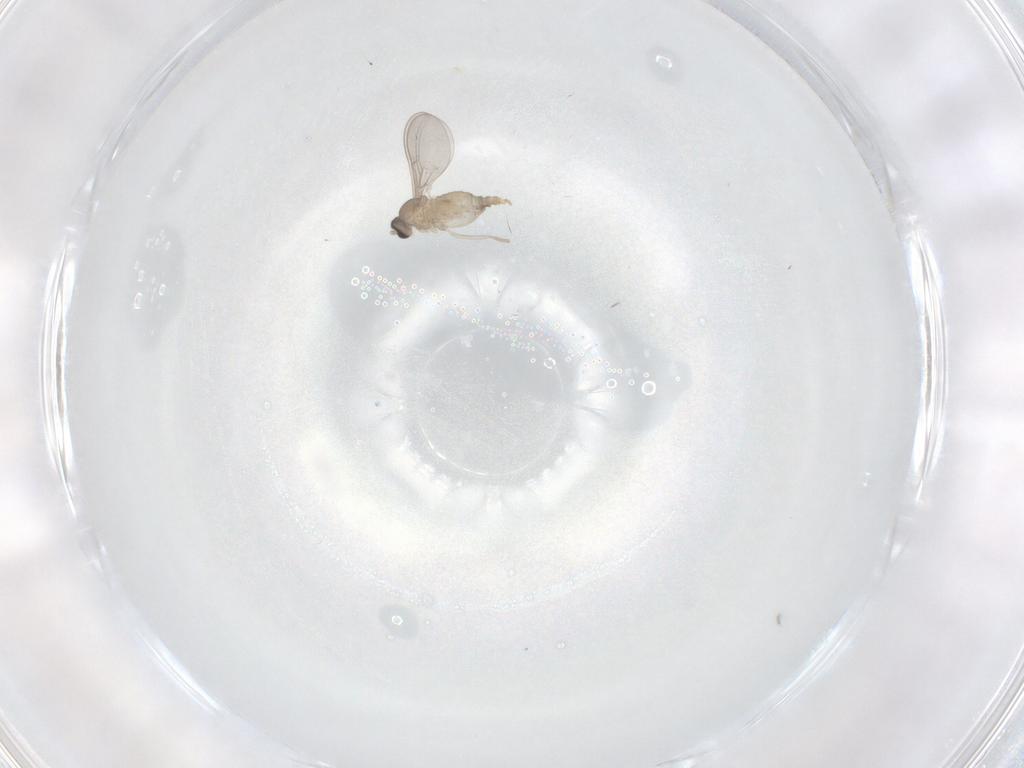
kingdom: Animalia
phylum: Arthropoda
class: Insecta
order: Diptera
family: Cecidomyiidae
